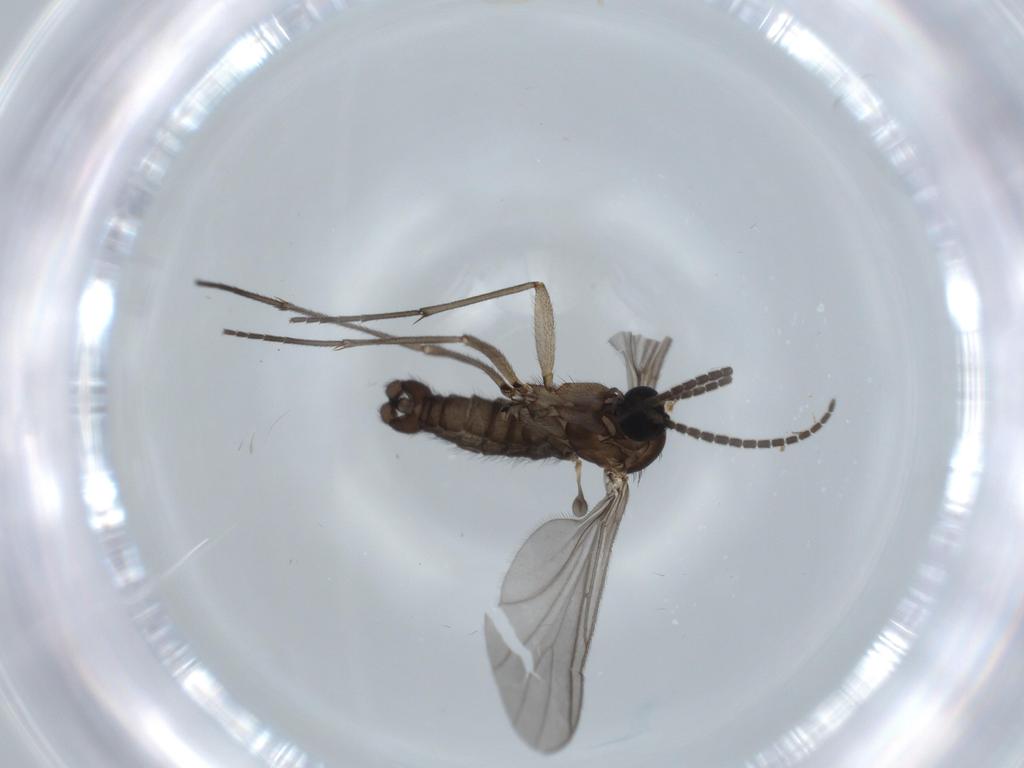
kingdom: Animalia
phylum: Arthropoda
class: Insecta
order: Diptera
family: Sciaridae
